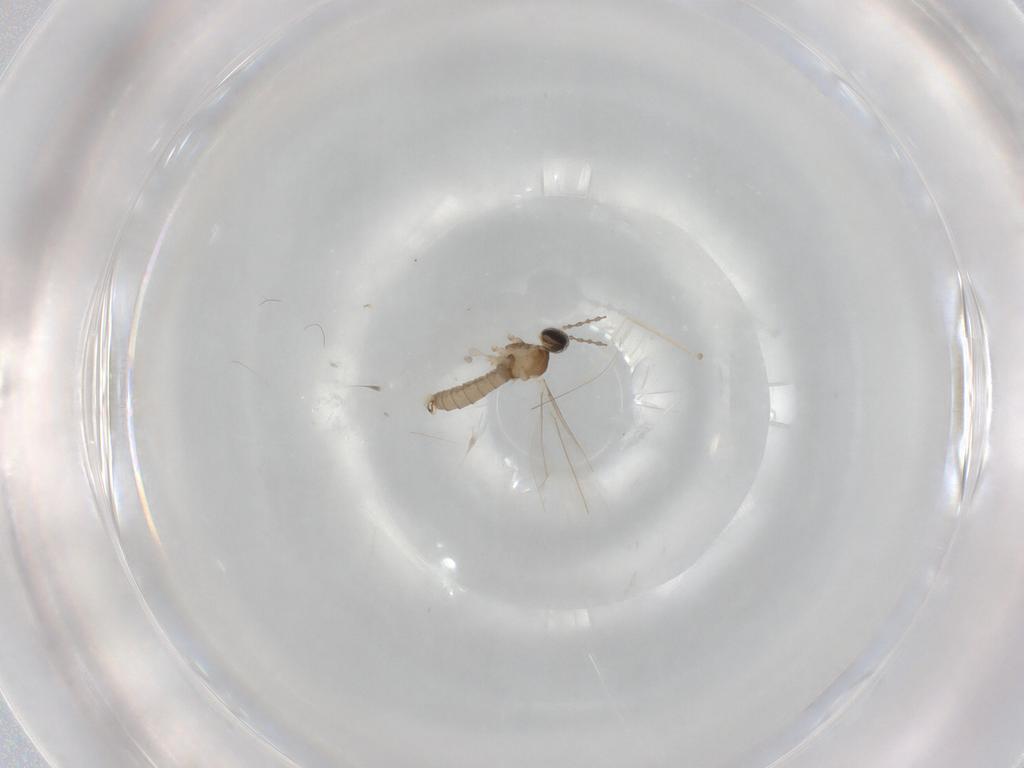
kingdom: Animalia
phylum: Arthropoda
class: Insecta
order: Diptera
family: Cecidomyiidae
